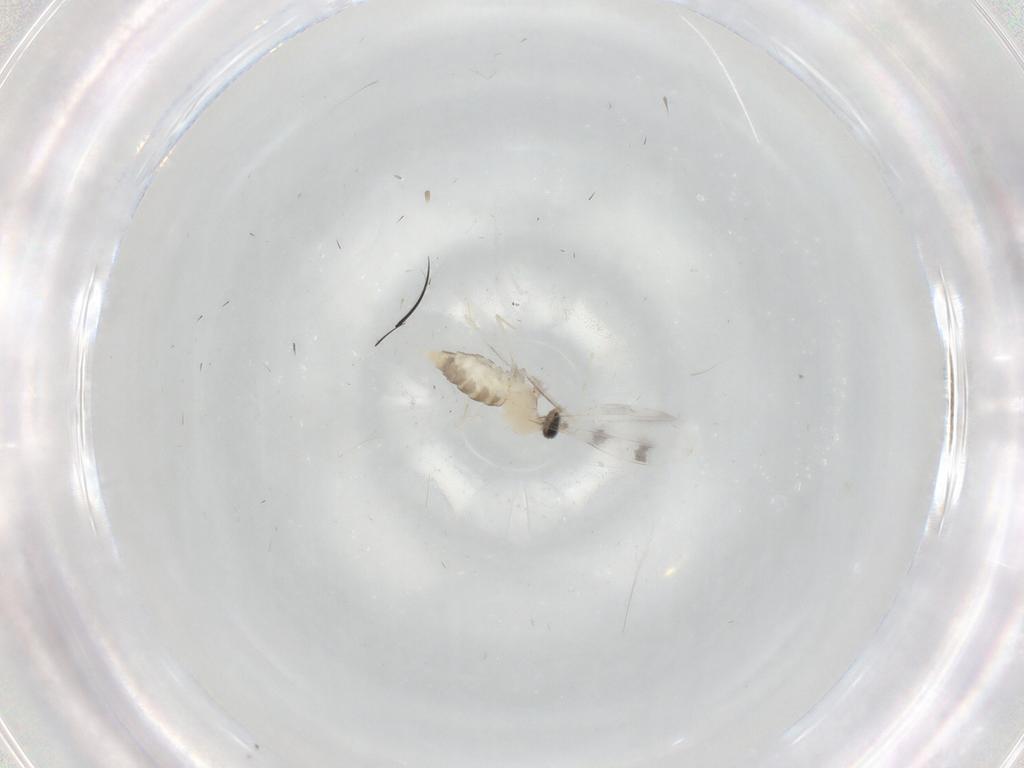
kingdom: Animalia
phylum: Arthropoda
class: Insecta
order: Diptera
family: Cecidomyiidae
